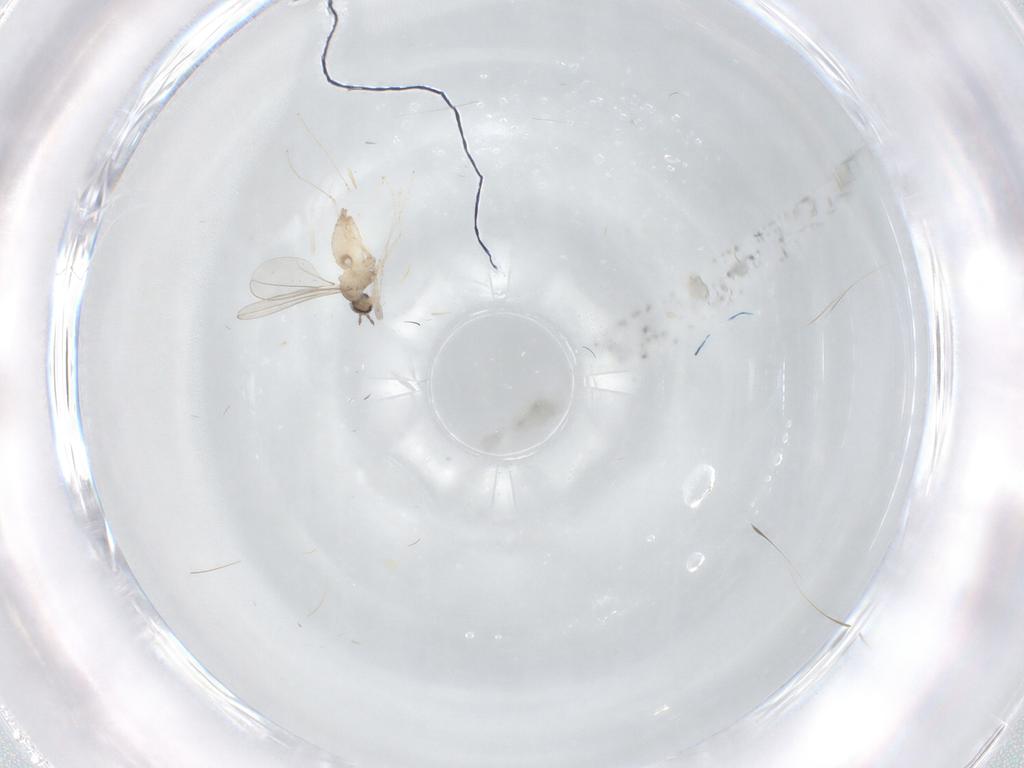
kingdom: Animalia
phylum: Arthropoda
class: Insecta
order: Diptera
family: Cecidomyiidae
